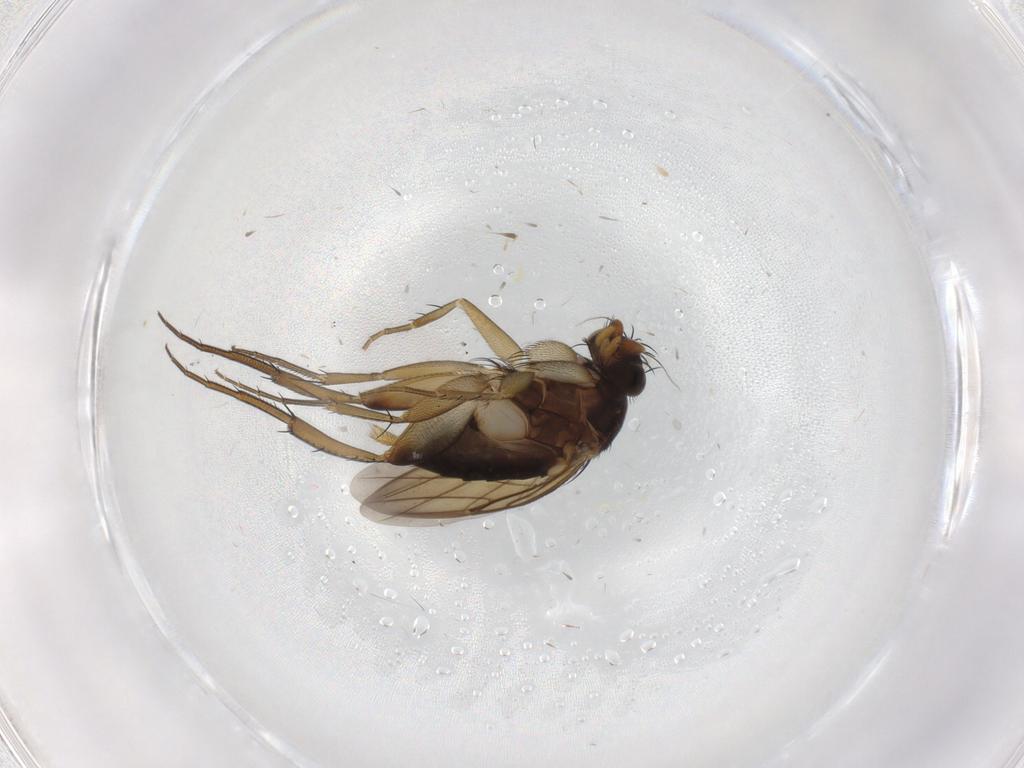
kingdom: Animalia
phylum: Arthropoda
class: Insecta
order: Diptera
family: Phoridae
